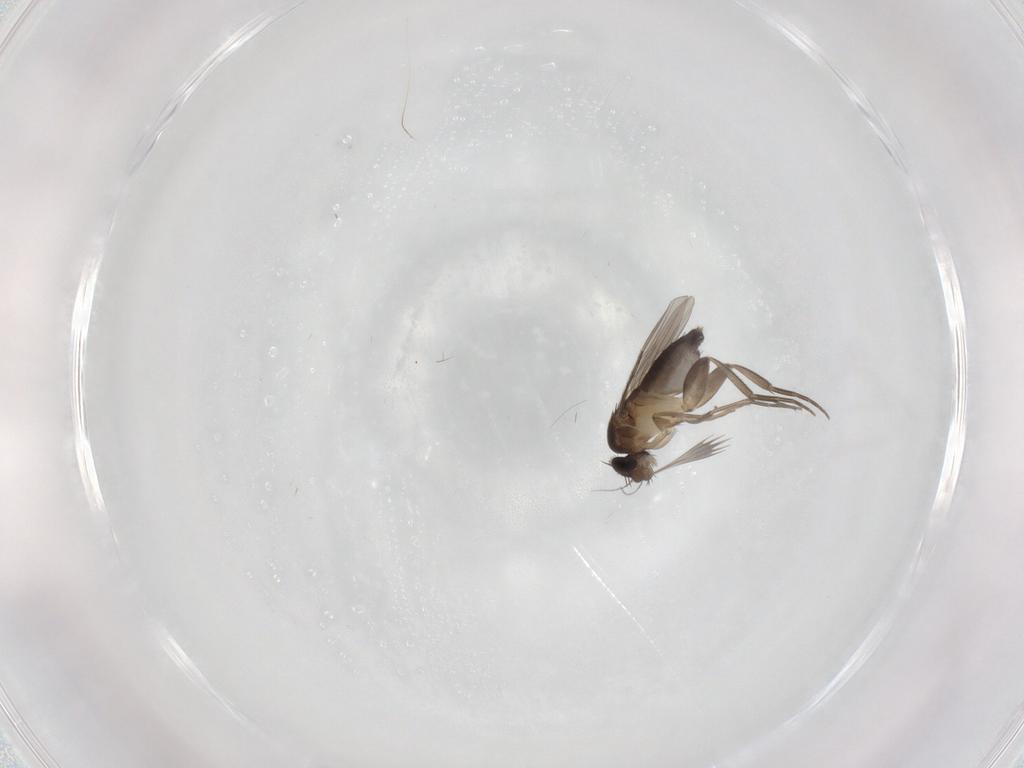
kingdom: Animalia
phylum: Arthropoda
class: Insecta
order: Diptera
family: Phoridae
